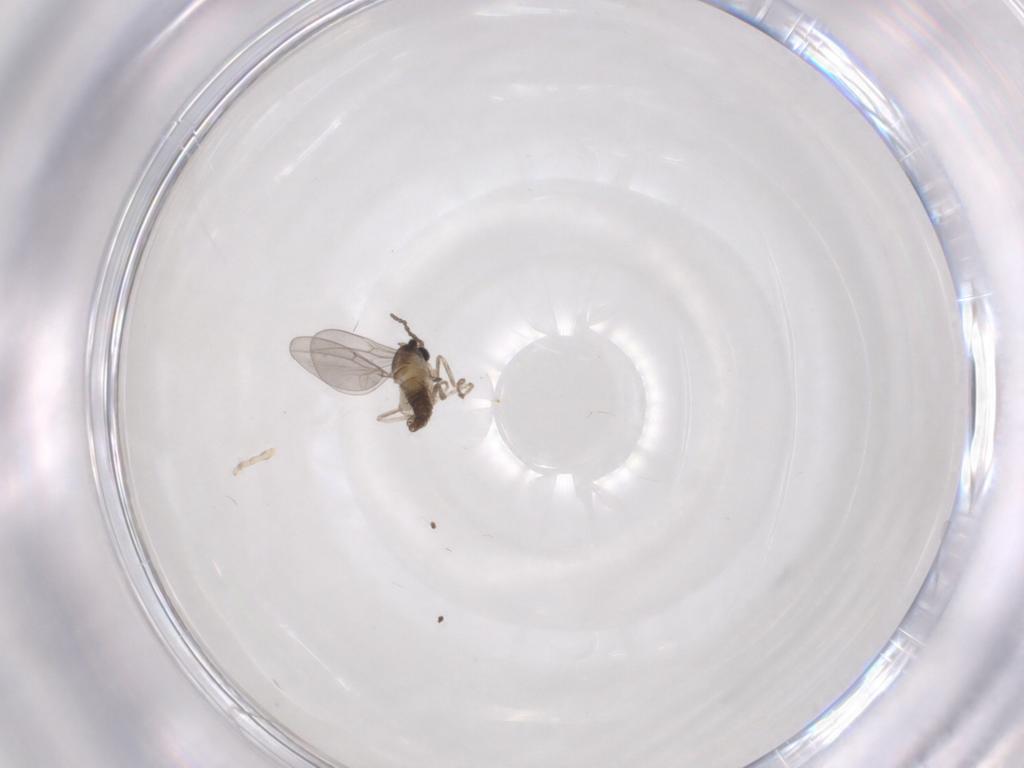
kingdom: Animalia
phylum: Arthropoda
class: Insecta
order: Diptera
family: Cecidomyiidae
